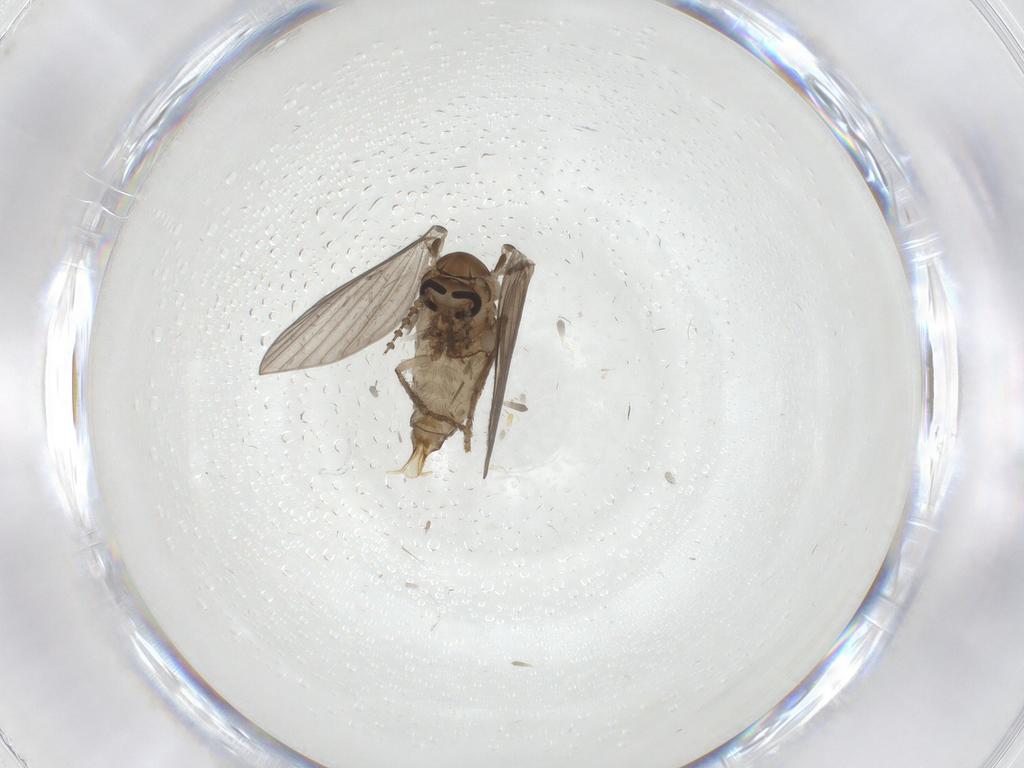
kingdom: Animalia
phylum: Arthropoda
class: Insecta
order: Diptera
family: Psychodidae
